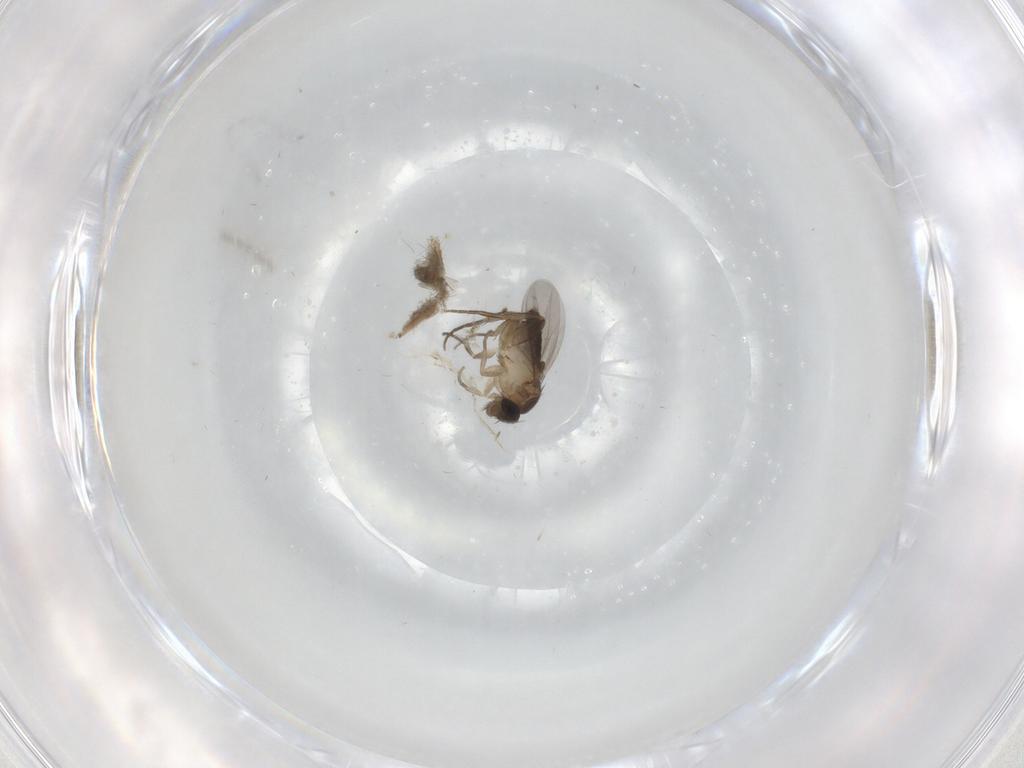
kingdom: Animalia
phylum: Arthropoda
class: Insecta
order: Diptera
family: Phoridae
